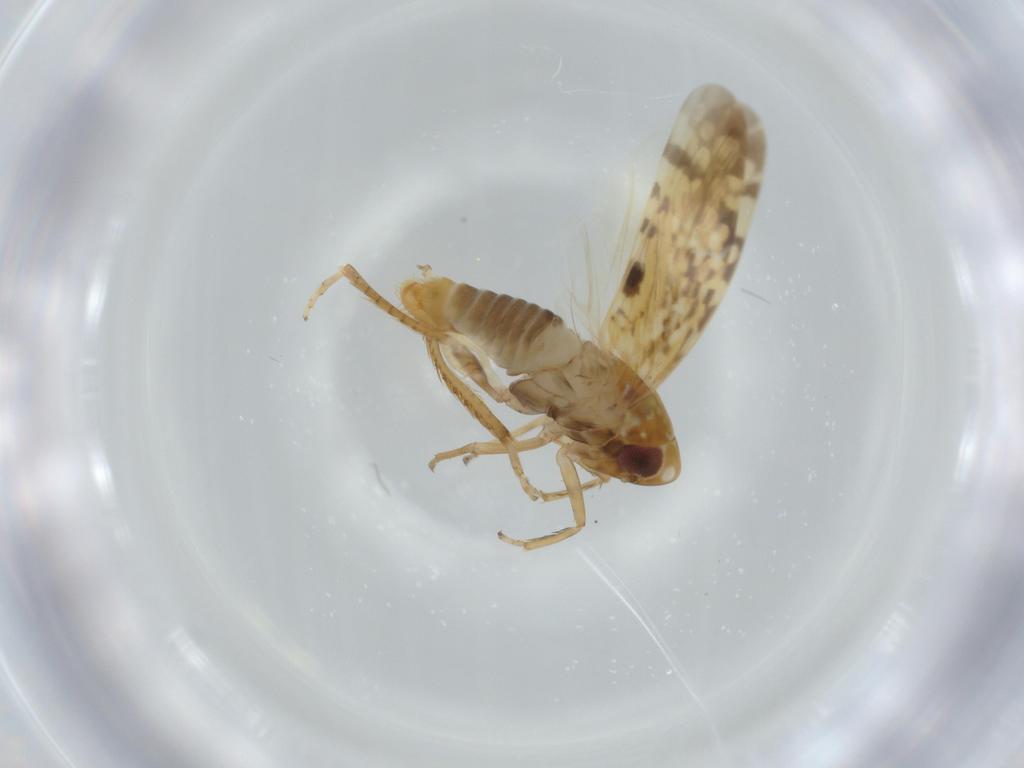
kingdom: Animalia
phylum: Arthropoda
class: Insecta
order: Hemiptera
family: Cicadellidae
